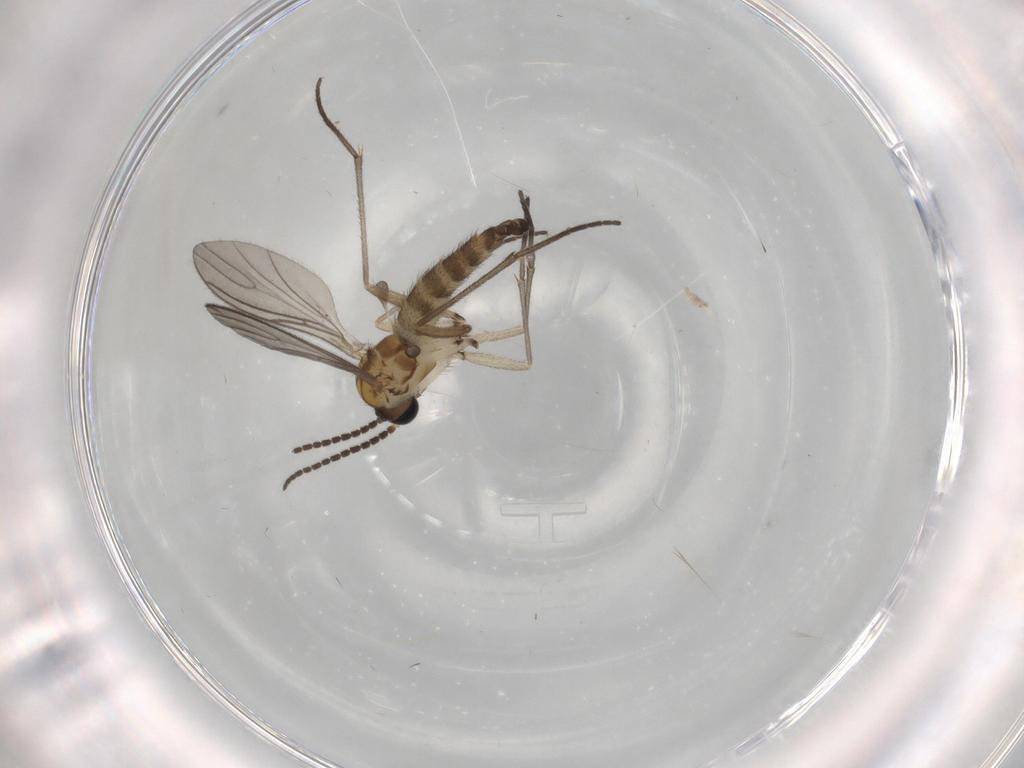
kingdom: Animalia
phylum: Arthropoda
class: Insecta
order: Diptera
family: Sciaridae
